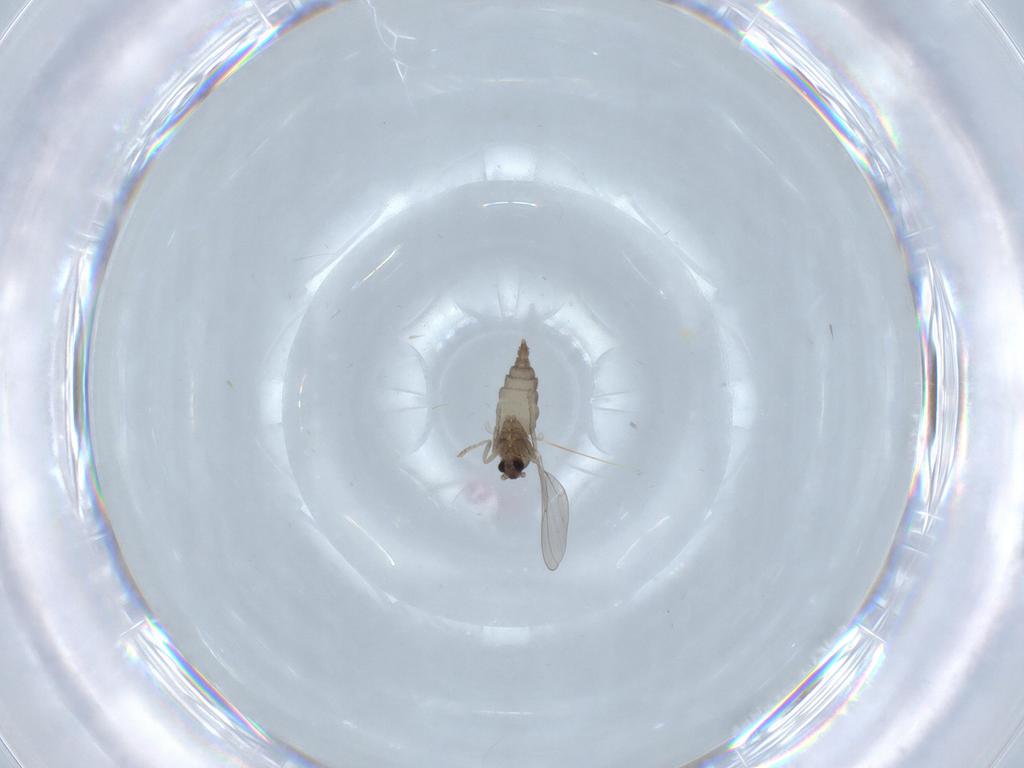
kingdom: Animalia
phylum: Arthropoda
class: Insecta
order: Diptera
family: Cecidomyiidae
